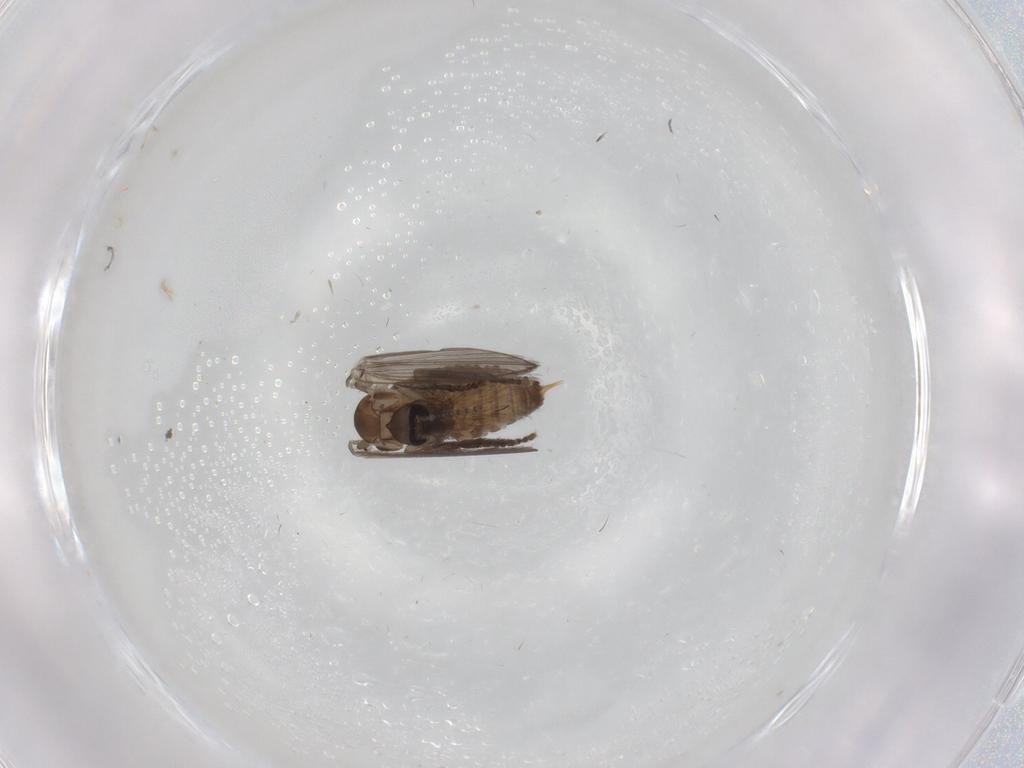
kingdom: Animalia
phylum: Arthropoda
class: Insecta
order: Diptera
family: Cecidomyiidae
